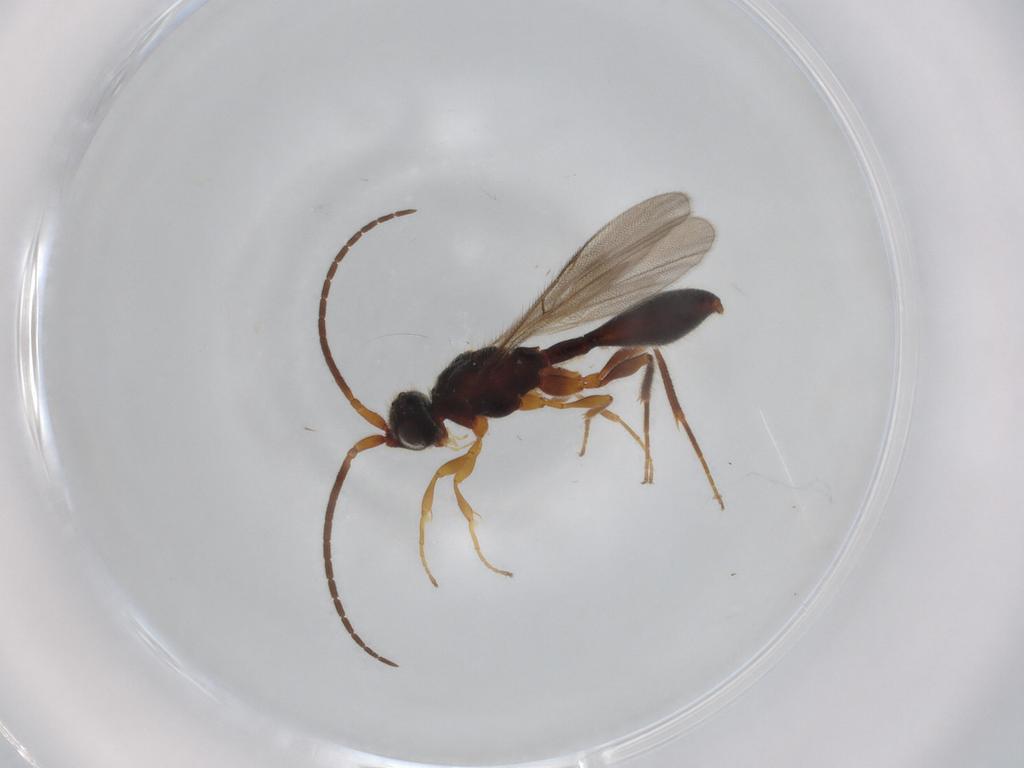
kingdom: Animalia
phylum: Arthropoda
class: Insecta
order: Hymenoptera
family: Diapriidae
